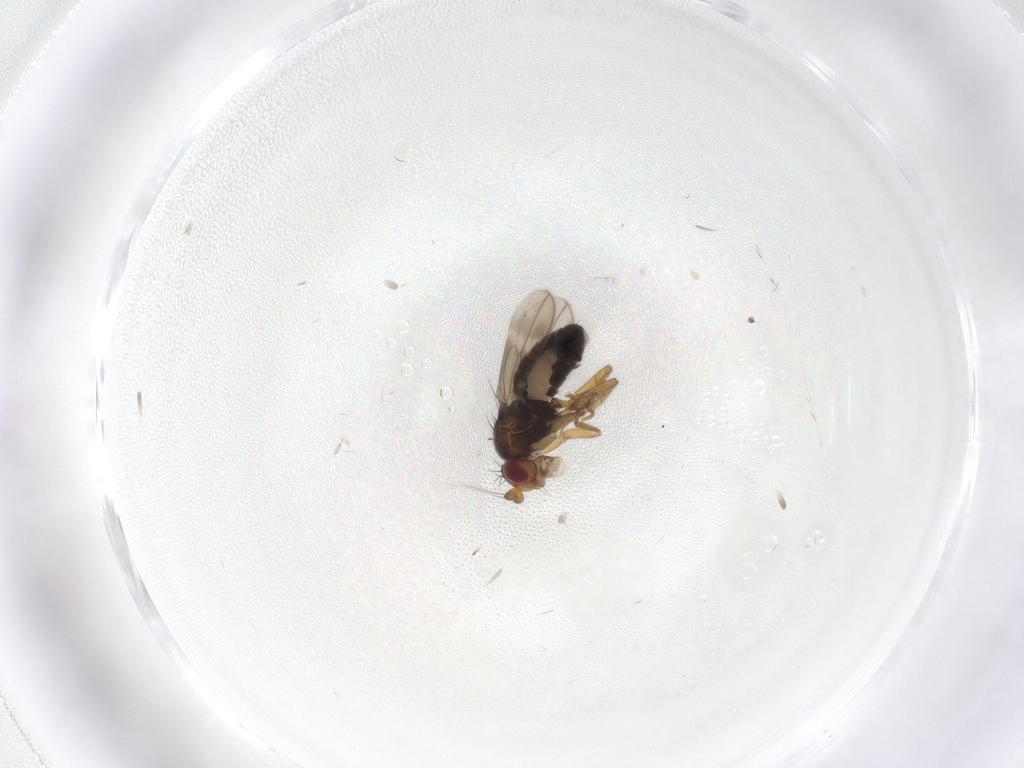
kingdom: Animalia
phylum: Arthropoda
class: Insecta
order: Diptera
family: Sphaeroceridae
